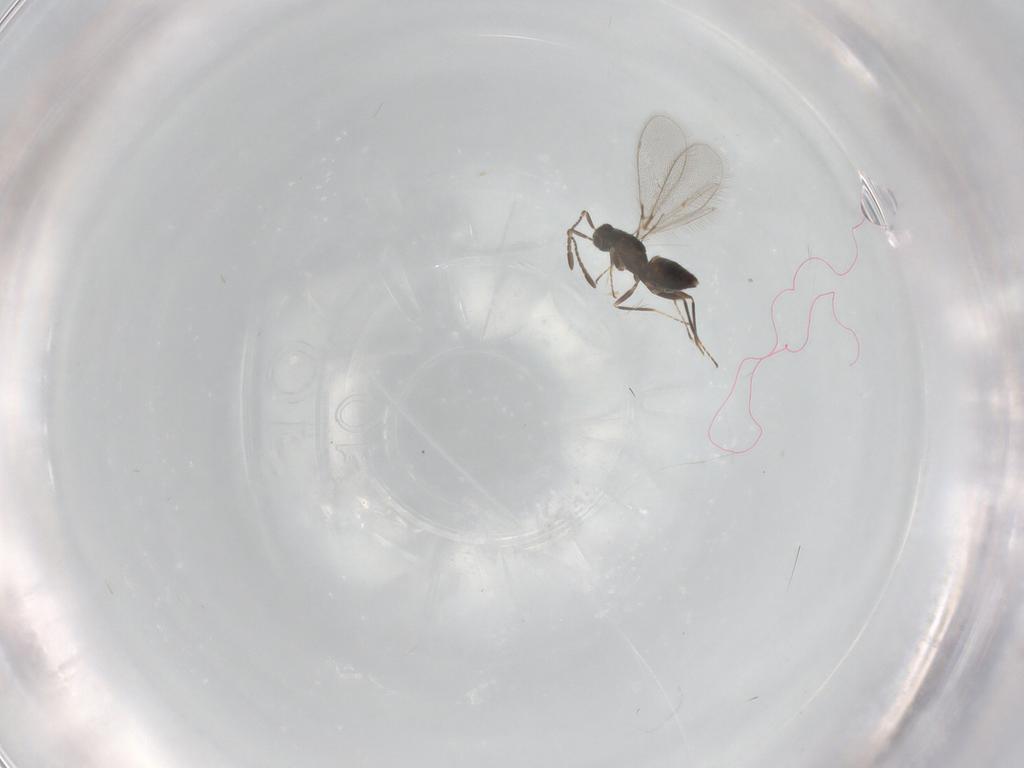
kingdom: Animalia
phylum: Arthropoda
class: Insecta
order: Hymenoptera
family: Mymaridae
